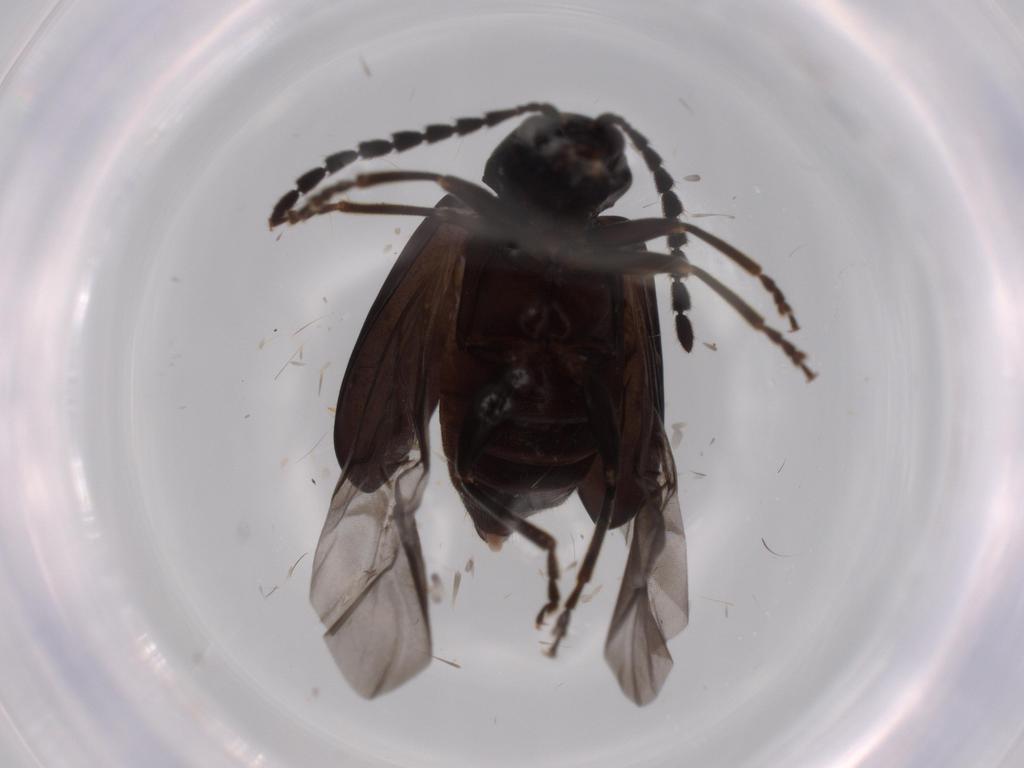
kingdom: Animalia
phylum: Arthropoda
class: Insecta
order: Coleoptera
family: Chrysomelidae
